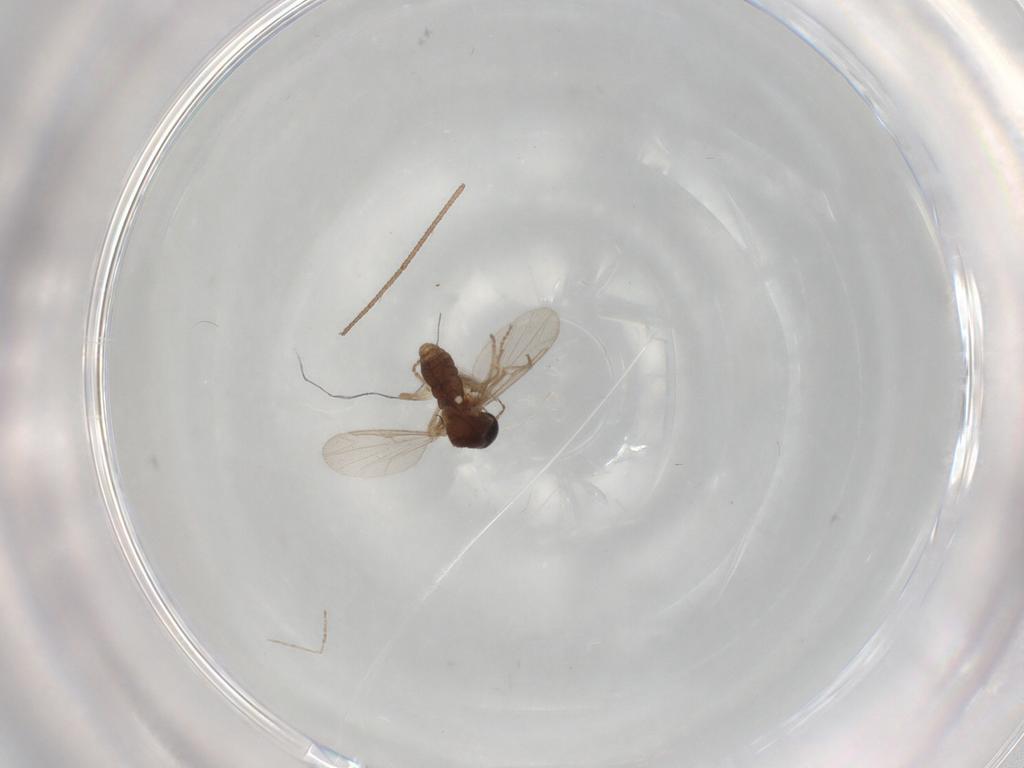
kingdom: Animalia
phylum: Arthropoda
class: Insecta
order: Diptera
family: Ceratopogonidae
